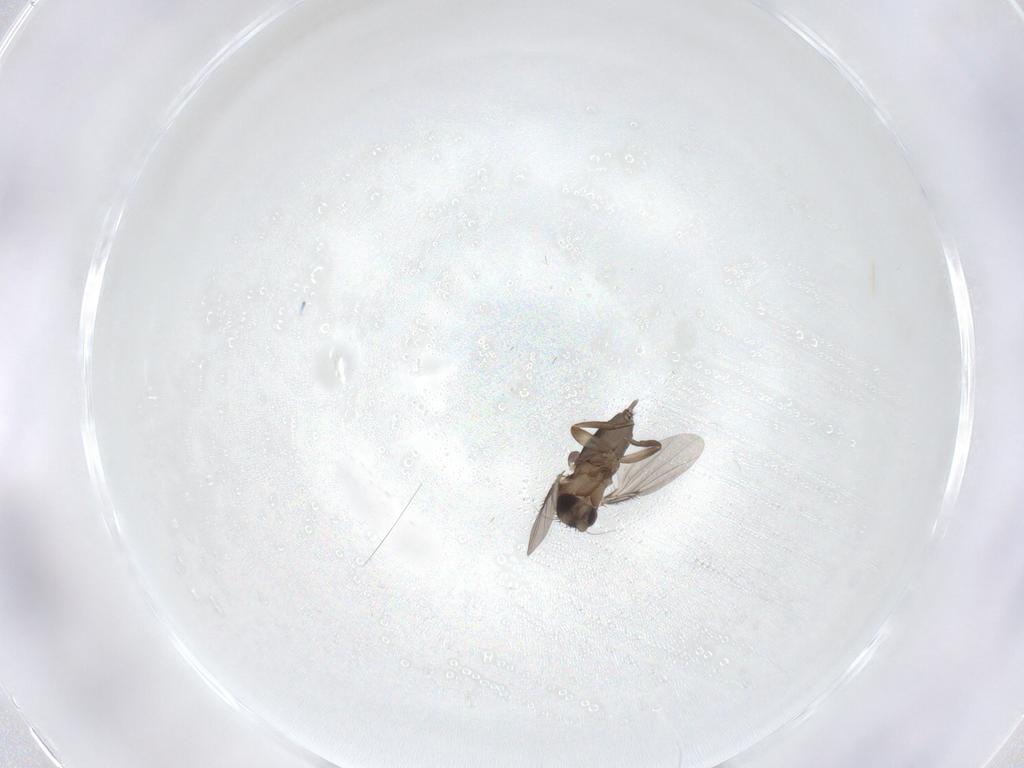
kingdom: Animalia
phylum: Arthropoda
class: Insecta
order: Diptera
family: Phoridae
